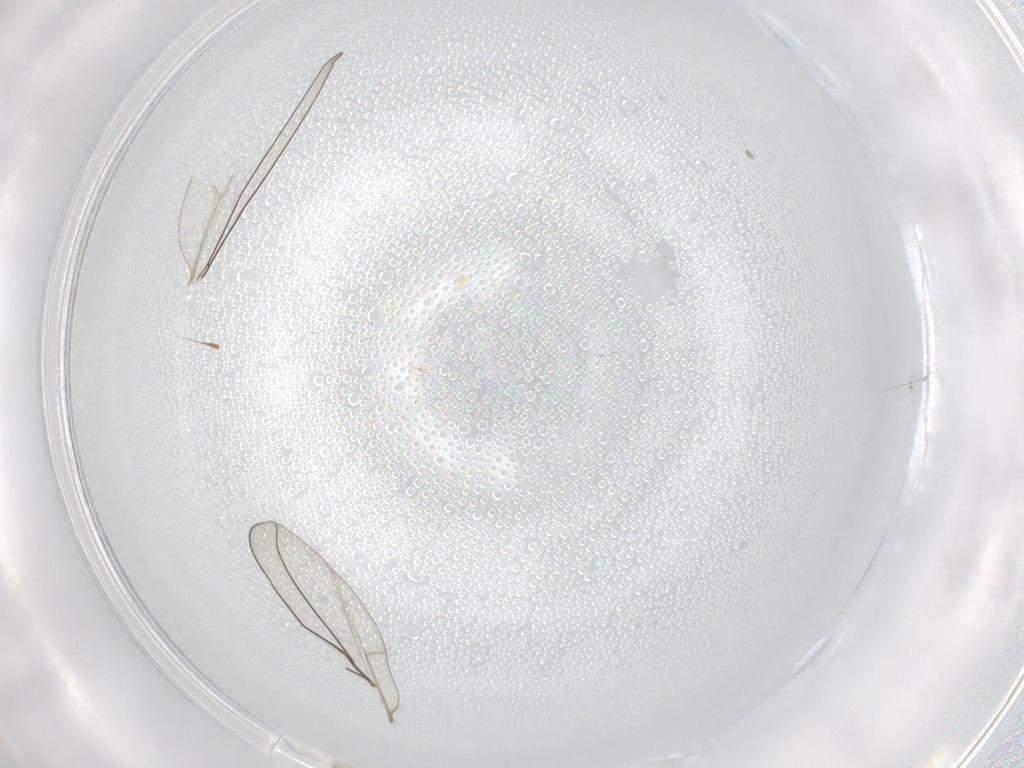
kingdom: Animalia
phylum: Arthropoda
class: Insecta
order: Diptera
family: Cecidomyiidae
